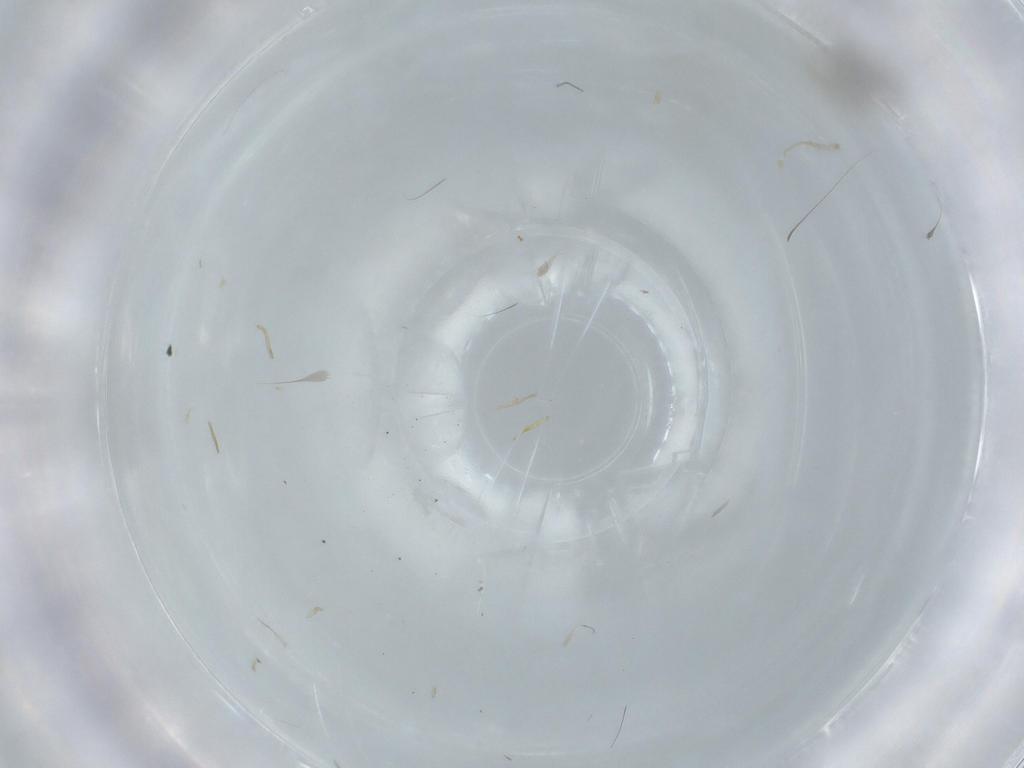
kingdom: Animalia
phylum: Arthropoda
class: Insecta
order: Diptera
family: Cecidomyiidae
